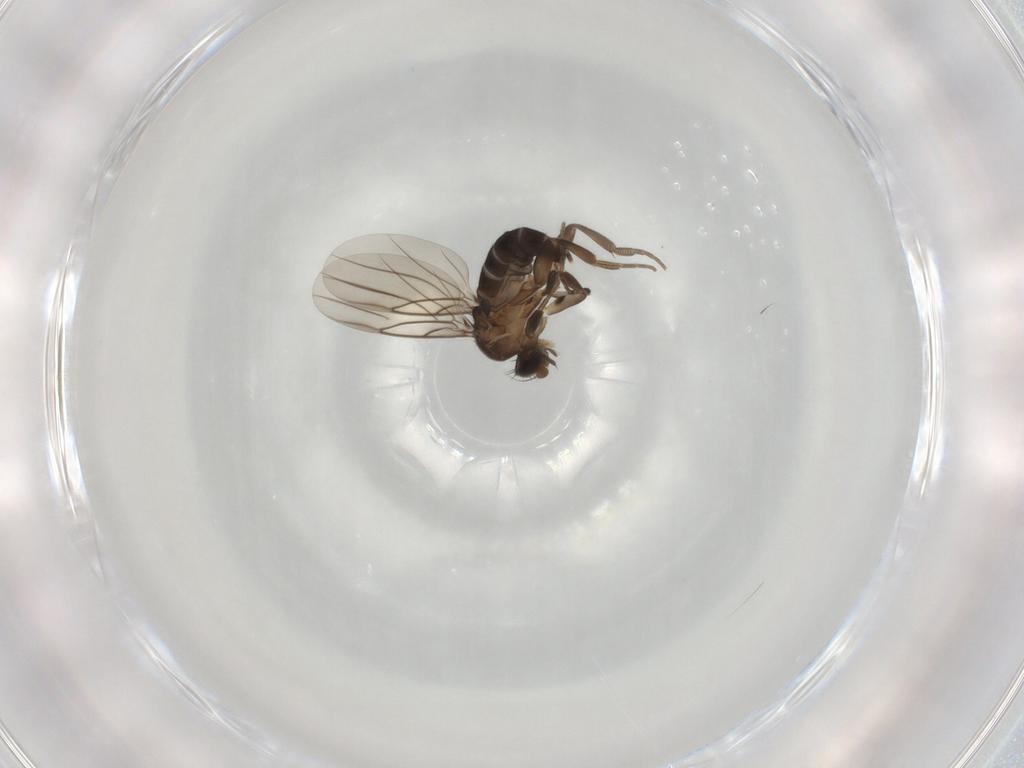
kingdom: Animalia
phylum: Arthropoda
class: Insecta
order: Diptera
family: Phoridae
